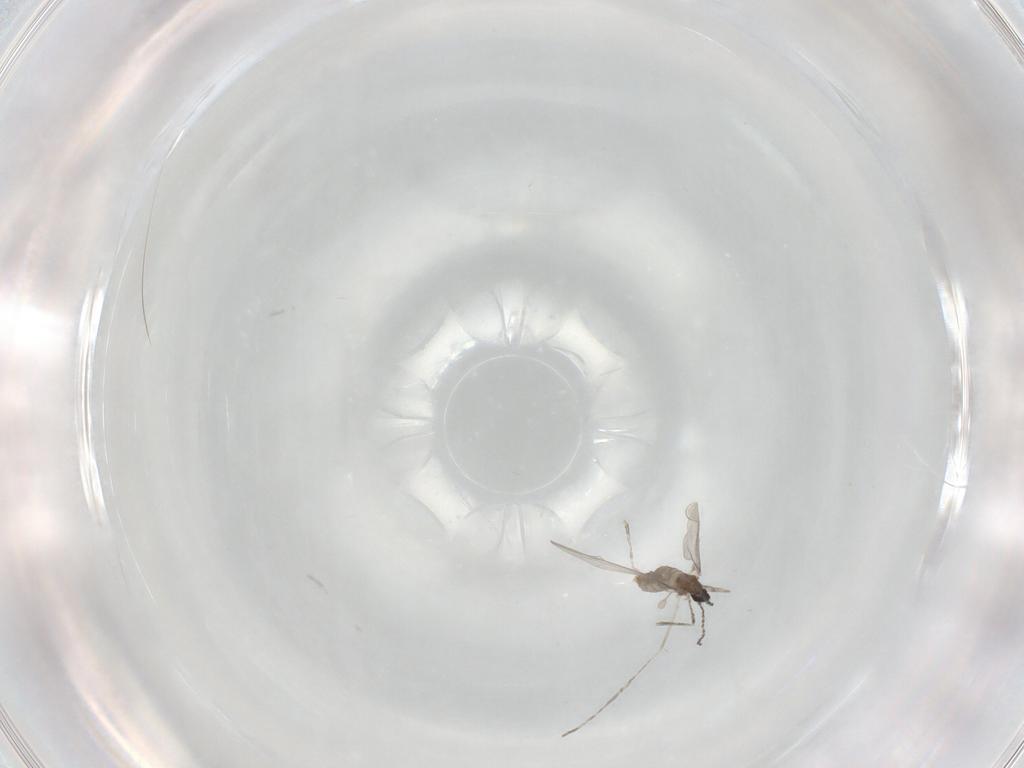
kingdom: Animalia
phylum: Arthropoda
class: Insecta
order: Diptera
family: Cecidomyiidae
